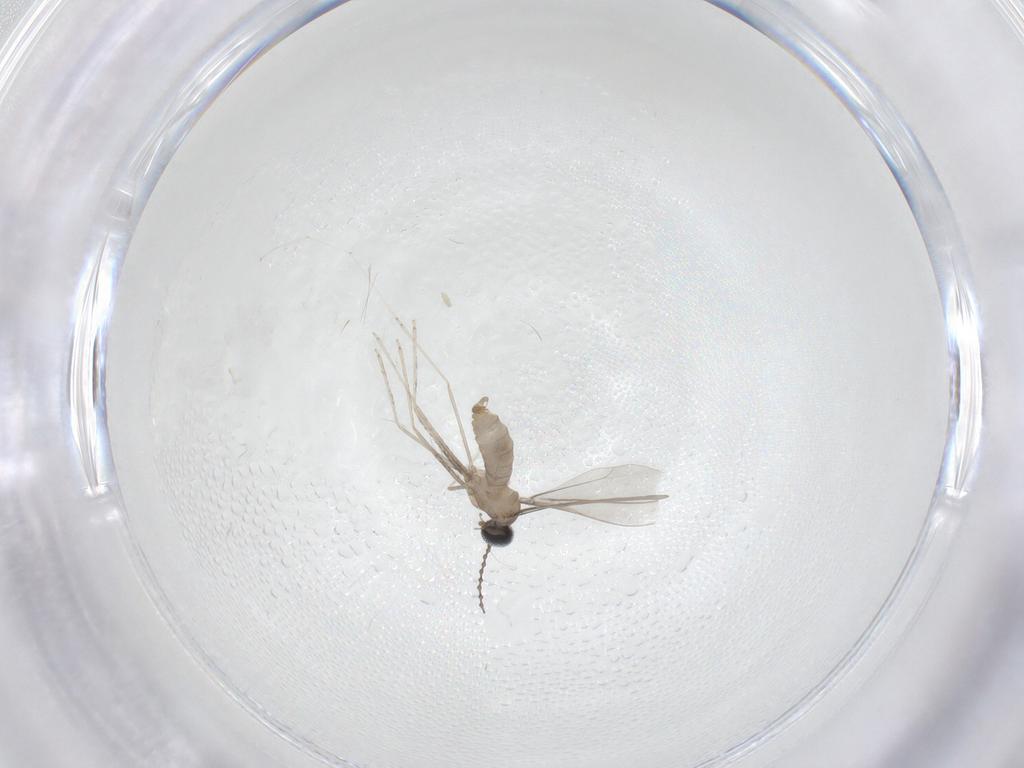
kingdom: Animalia
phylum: Arthropoda
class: Insecta
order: Diptera
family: Cecidomyiidae
